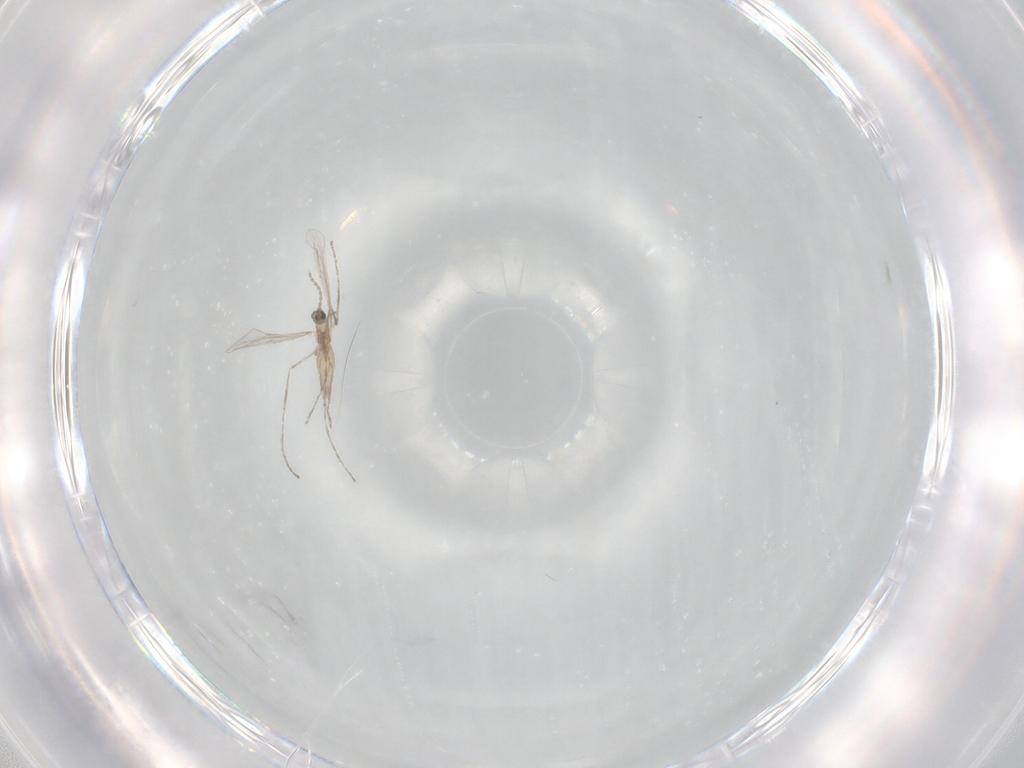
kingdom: Animalia
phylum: Arthropoda
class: Insecta
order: Diptera
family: Cecidomyiidae
